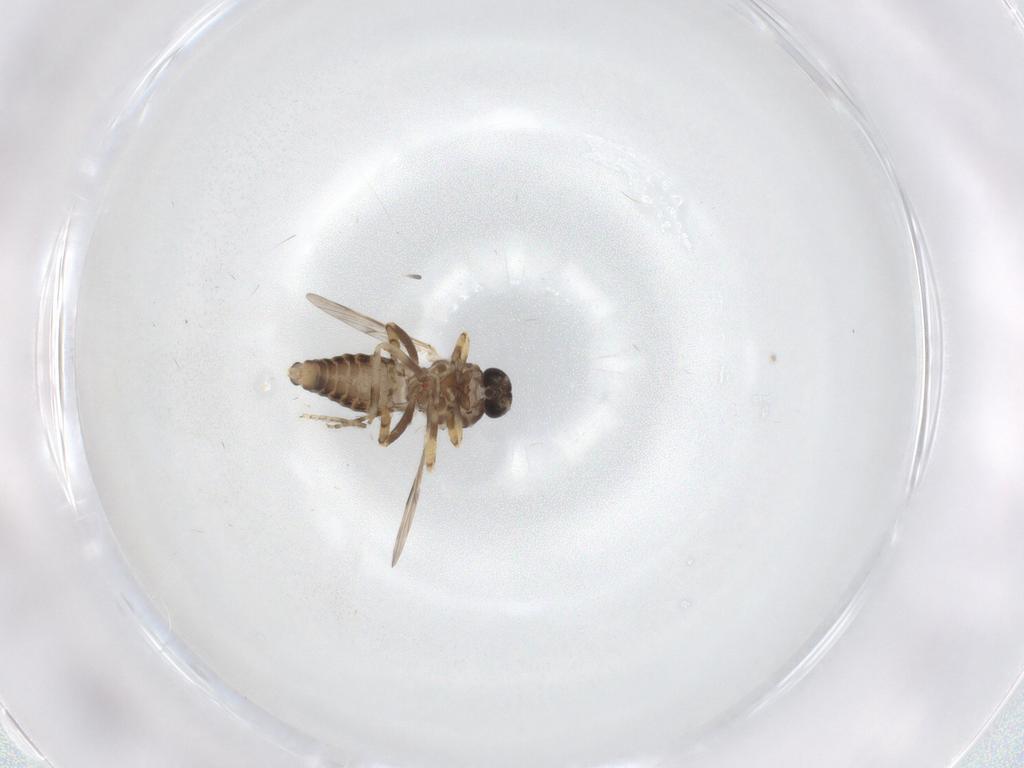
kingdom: Animalia
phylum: Arthropoda
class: Insecta
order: Diptera
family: Ceratopogonidae
